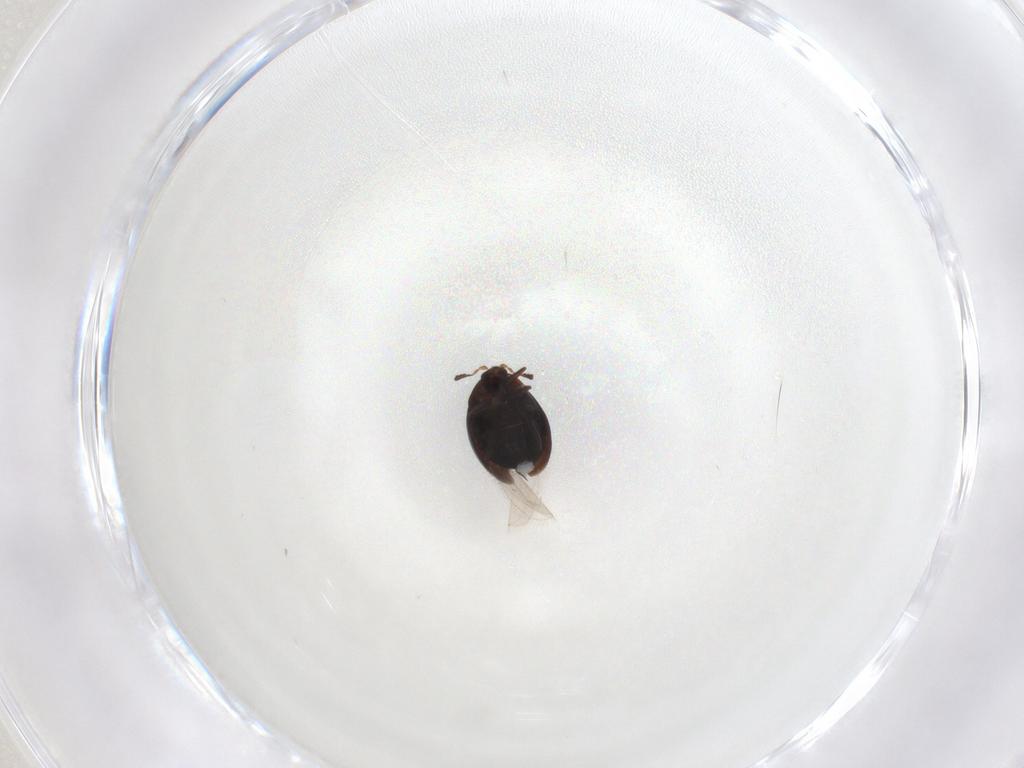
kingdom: Animalia
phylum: Arthropoda
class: Insecta
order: Coleoptera
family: Corylophidae
